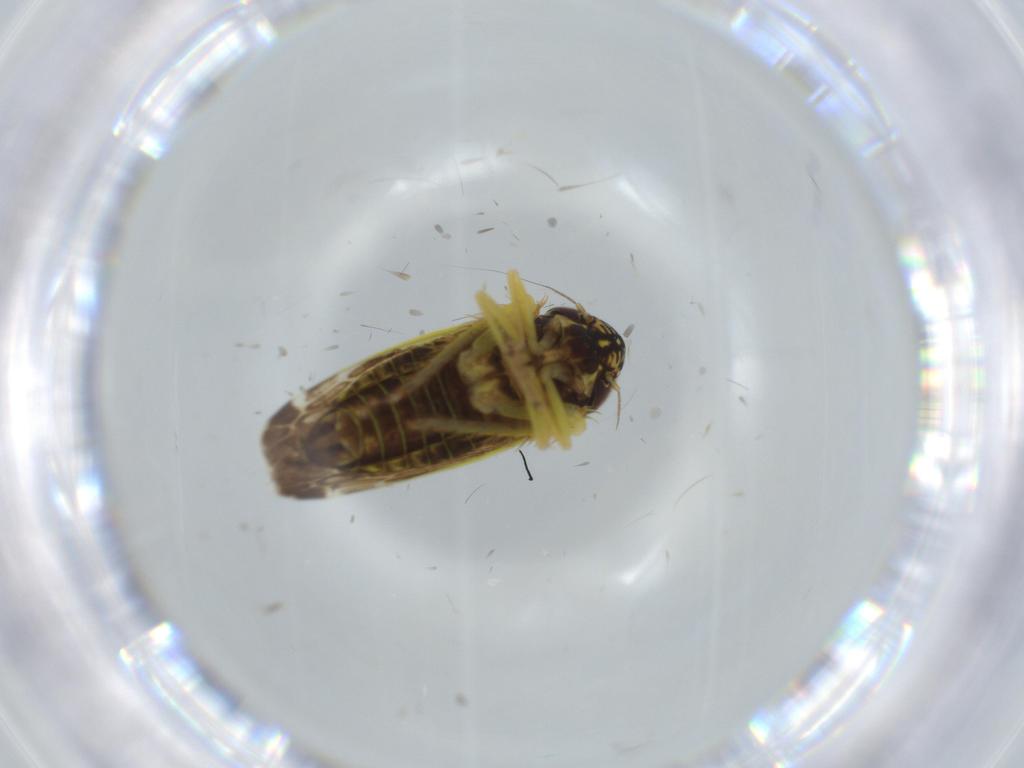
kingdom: Animalia
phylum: Arthropoda
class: Insecta
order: Hemiptera
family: Cicadellidae
